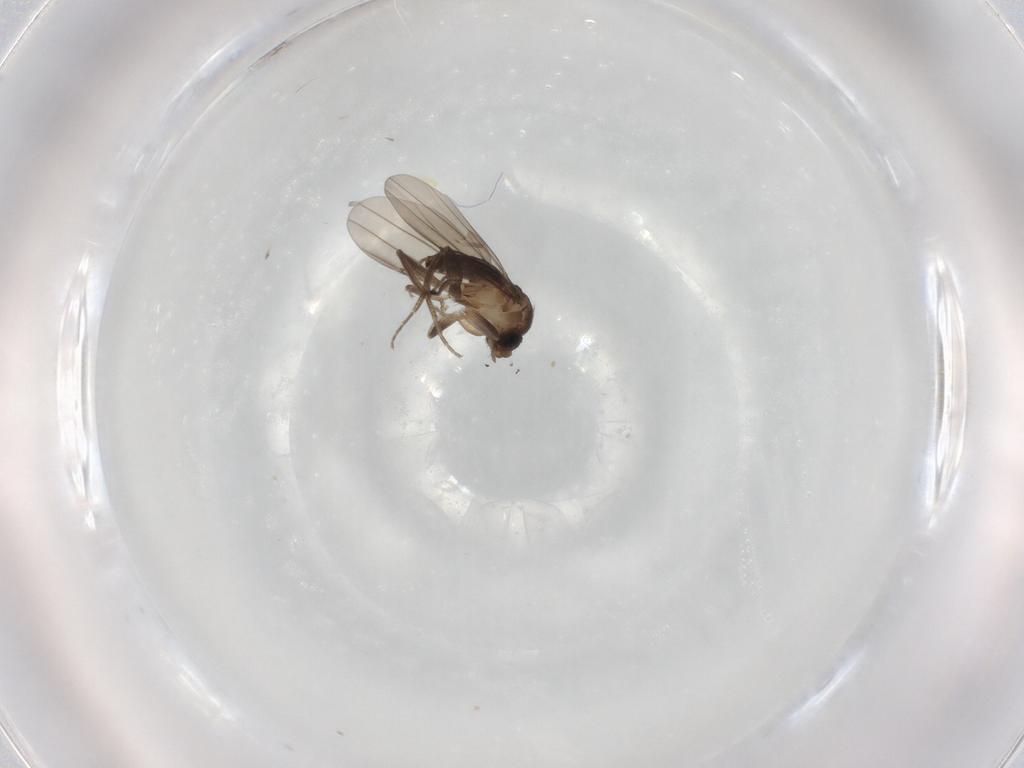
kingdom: Animalia
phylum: Arthropoda
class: Insecta
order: Diptera
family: Phoridae
